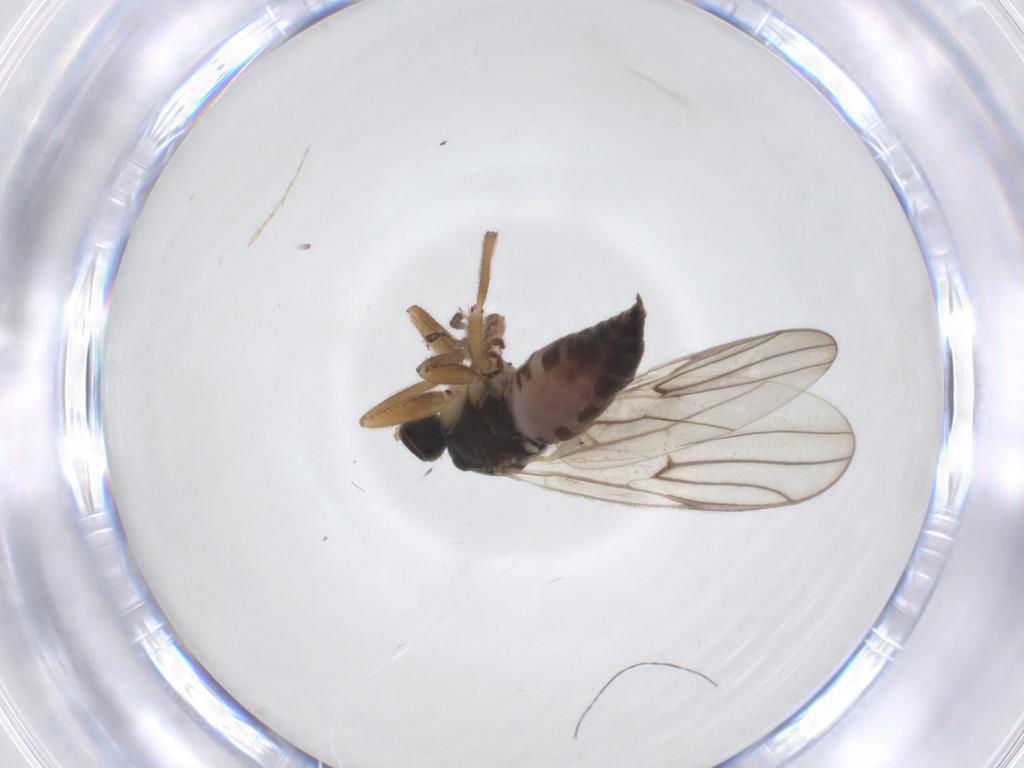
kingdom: Animalia
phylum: Arthropoda
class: Insecta
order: Diptera
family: Hybotidae
